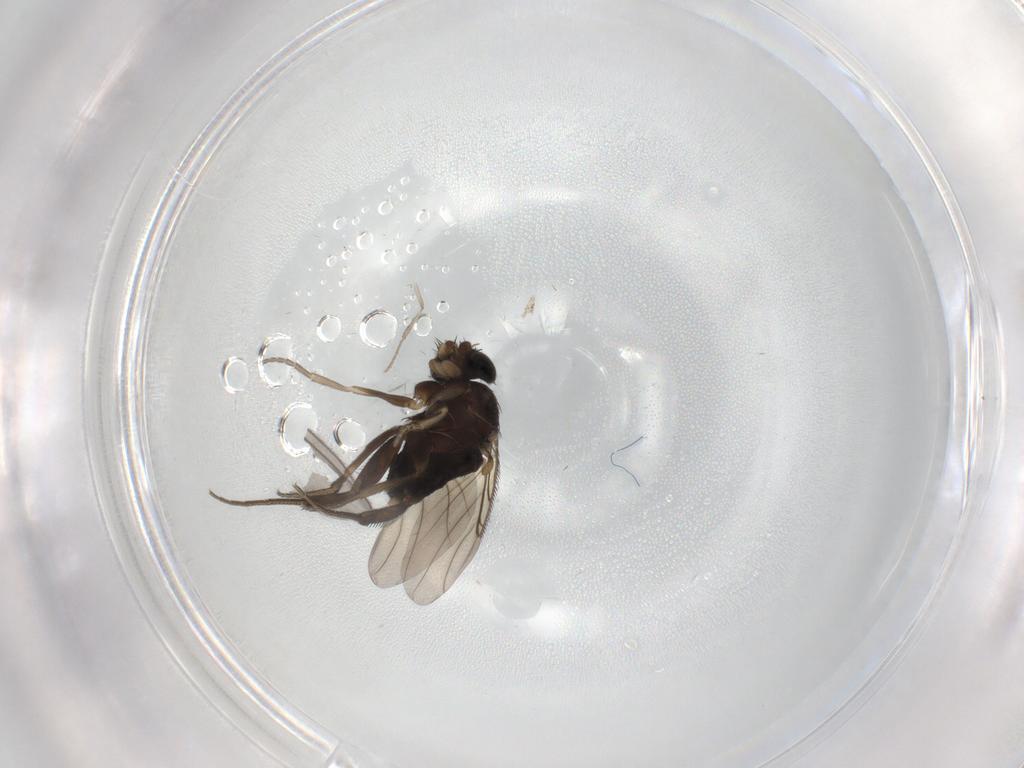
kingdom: Animalia
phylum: Arthropoda
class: Insecta
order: Diptera
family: Phoridae
